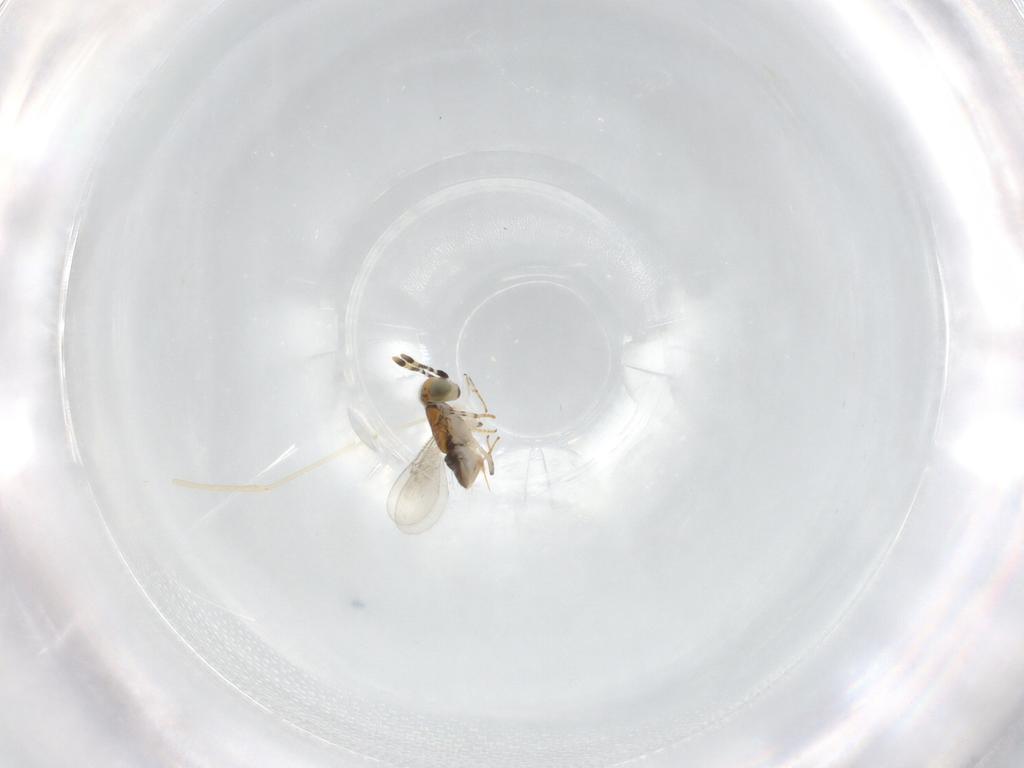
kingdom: Animalia
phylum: Arthropoda
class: Insecta
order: Hymenoptera
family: Encyrtidae
